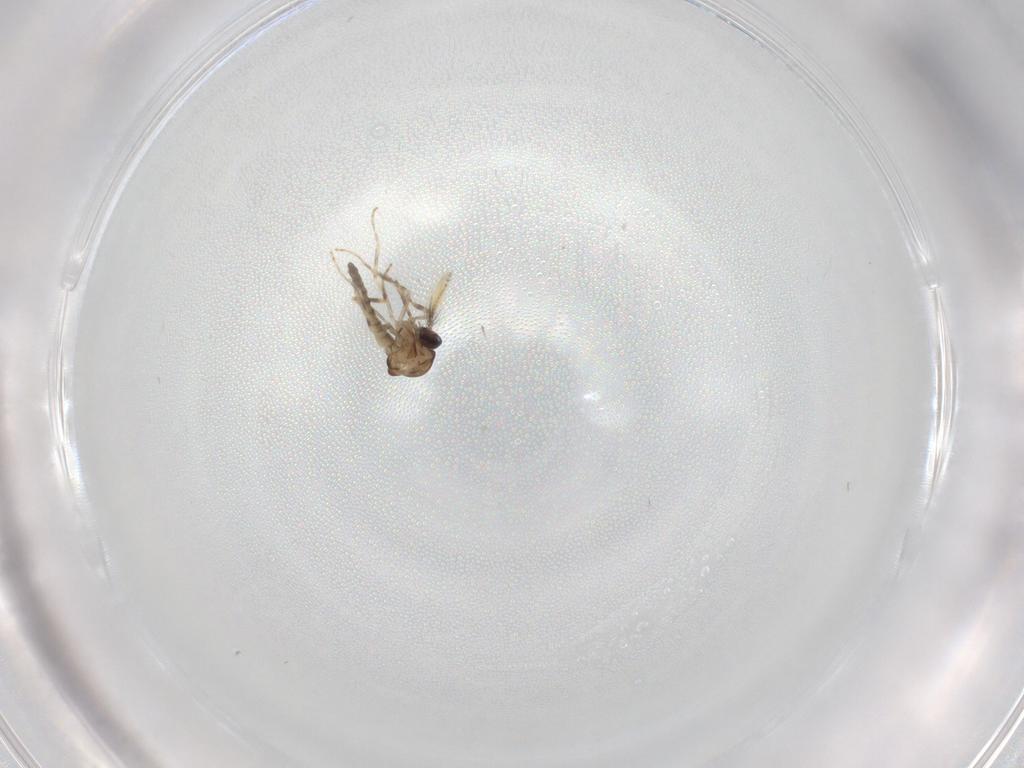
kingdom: Animalia
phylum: Arthropoda
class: Insecta
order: Diptera
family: Ceratopogonidae
